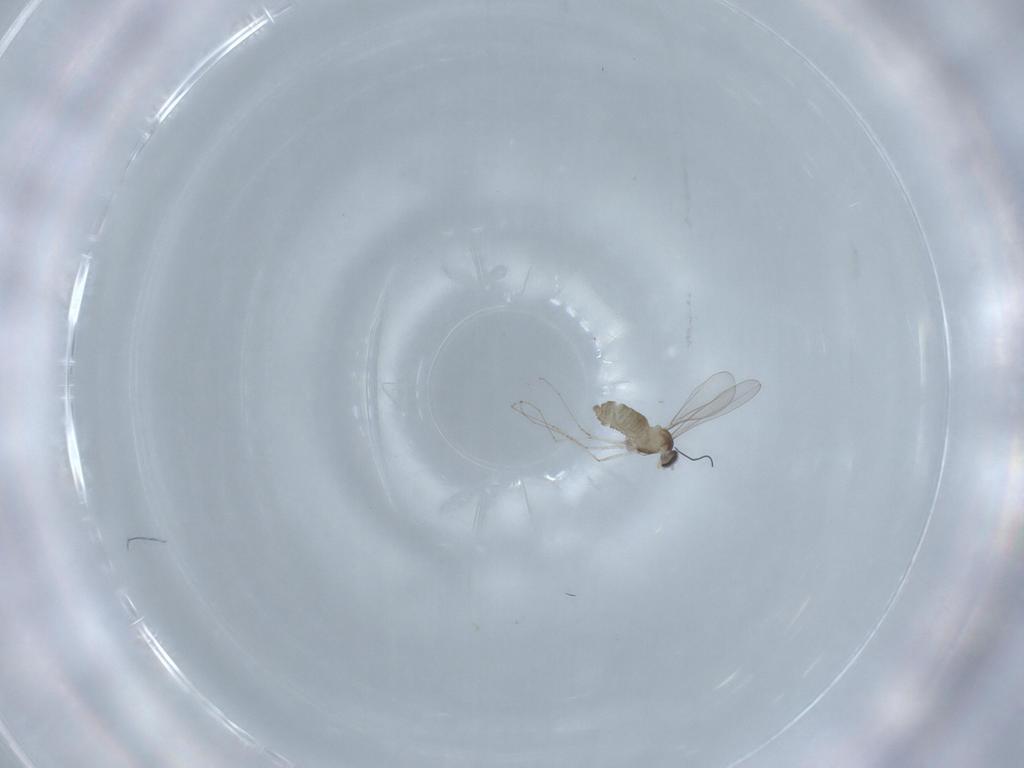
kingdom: Animalia
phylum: Arthropoda
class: Insecta
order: Diptera
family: Cecidomyiidae
